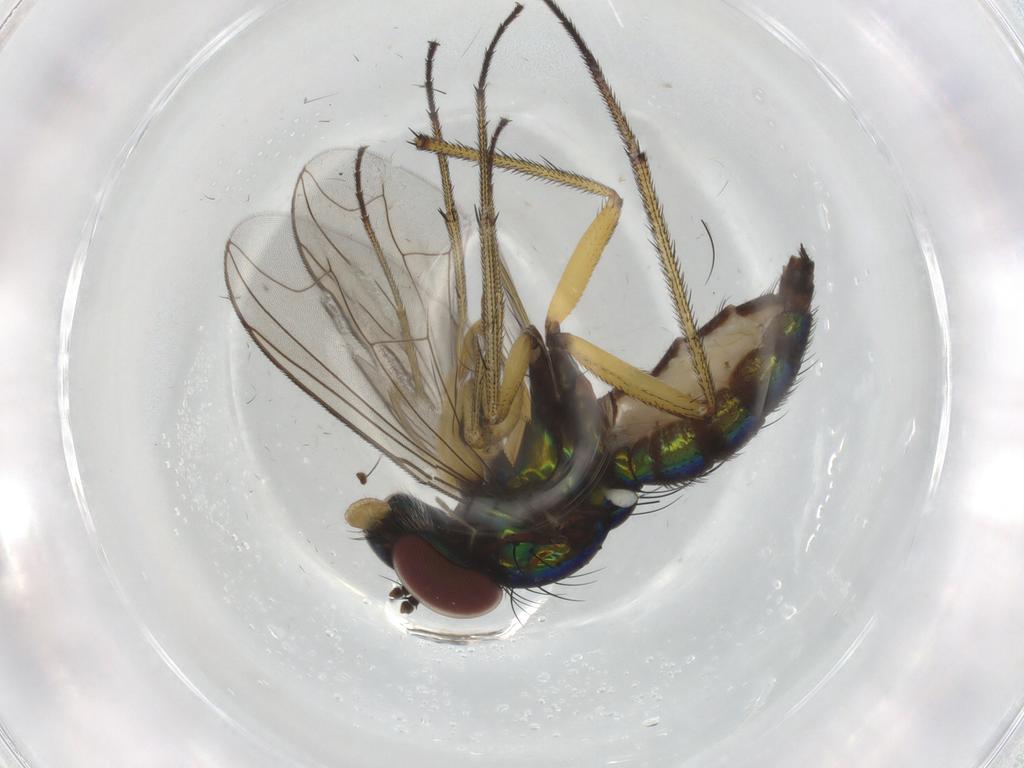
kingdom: Animalia
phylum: Arthropoda
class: Insecta
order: Diptera
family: Dolichopodidae
